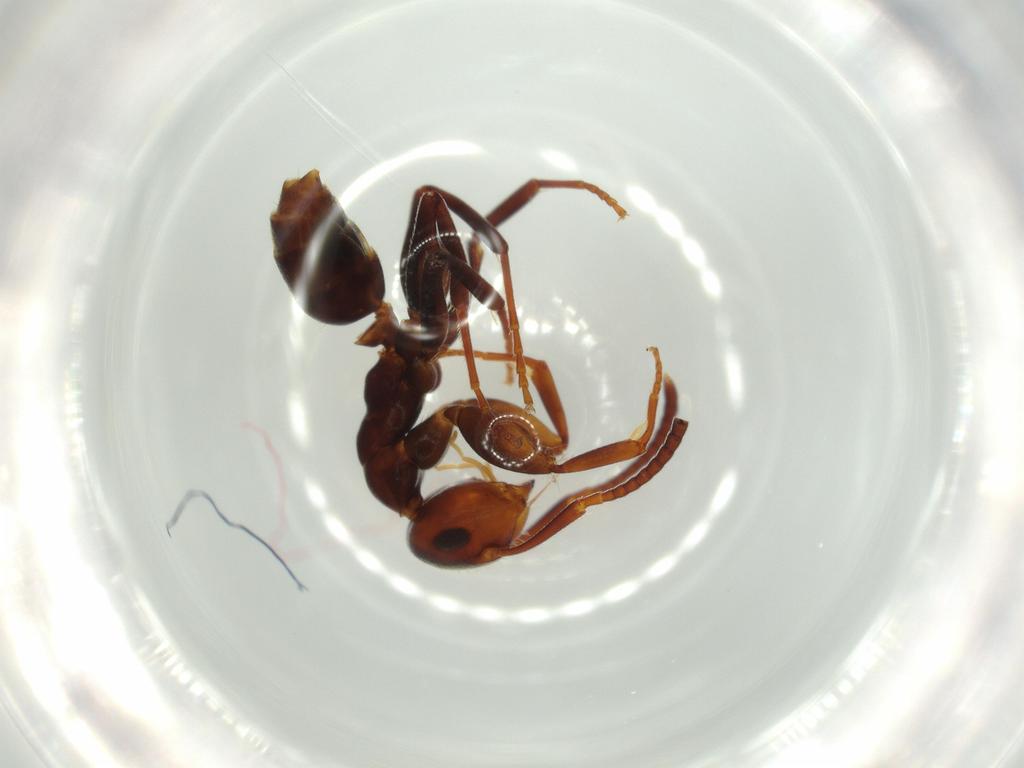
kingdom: Animalia
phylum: Arthropoda
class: Insecta
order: Hymenoptera
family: Formicidae
